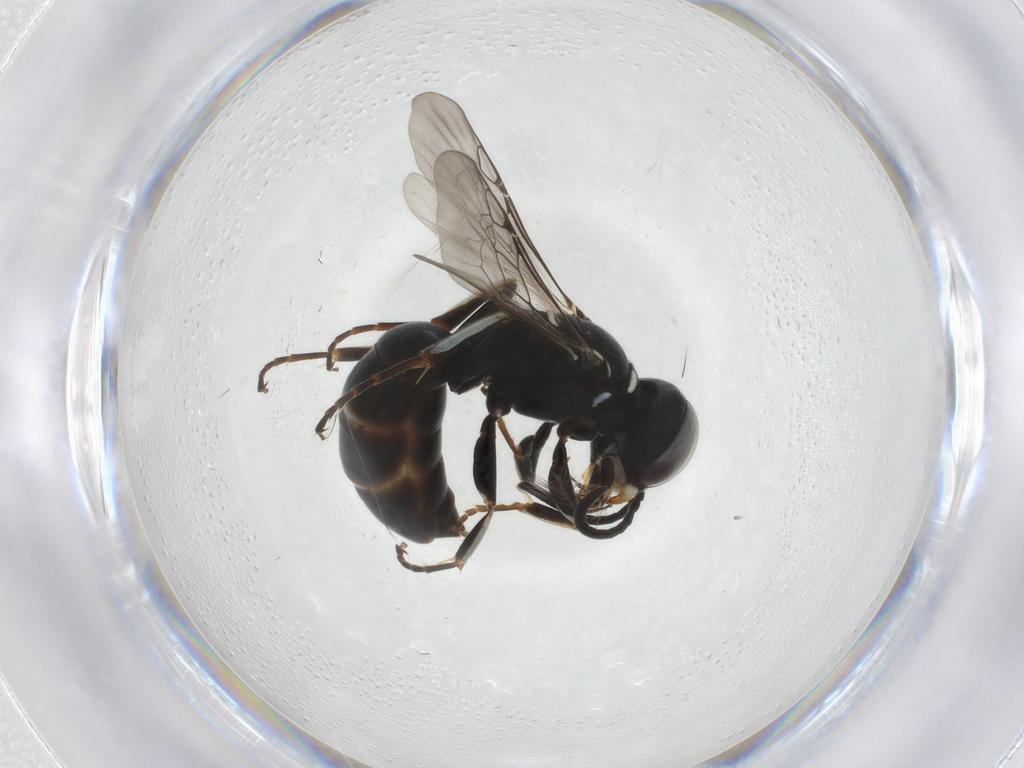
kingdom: Animalia
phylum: Arthropoda
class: Insecta
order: Hymenoptera
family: Crabronidae
